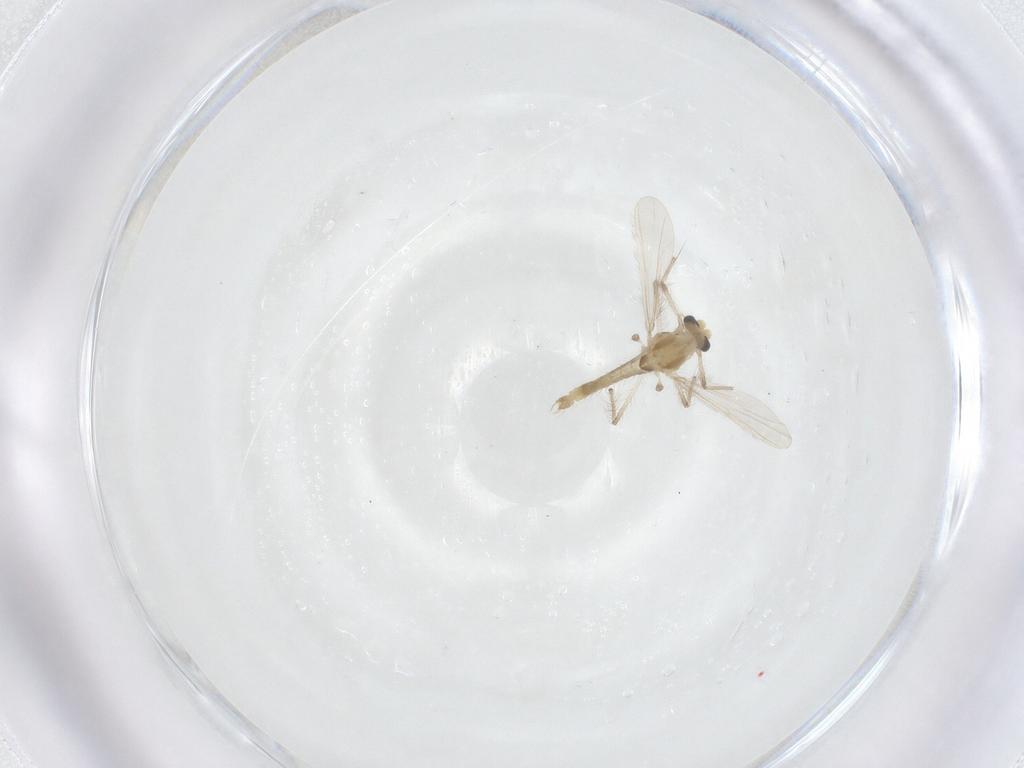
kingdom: Animalia
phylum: Arthropoda
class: Insecta
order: Diptera
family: Chironomidae
